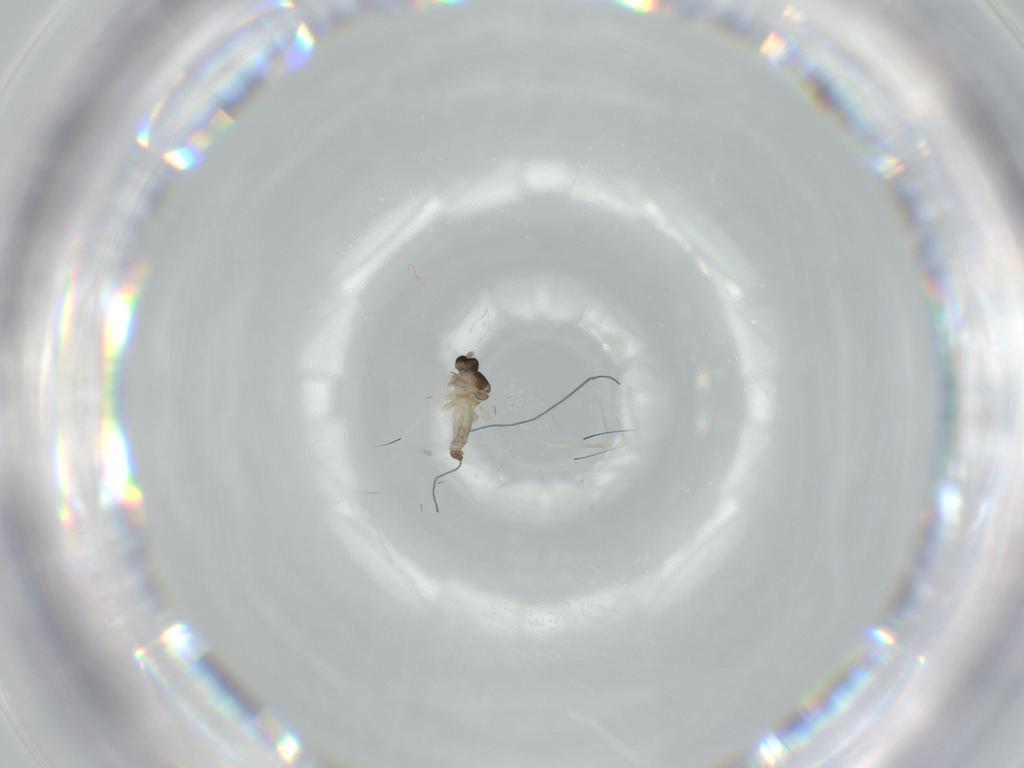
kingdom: Animalia
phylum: Arthropoda
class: Insecta
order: Diptera
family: Cecidomyiidae
